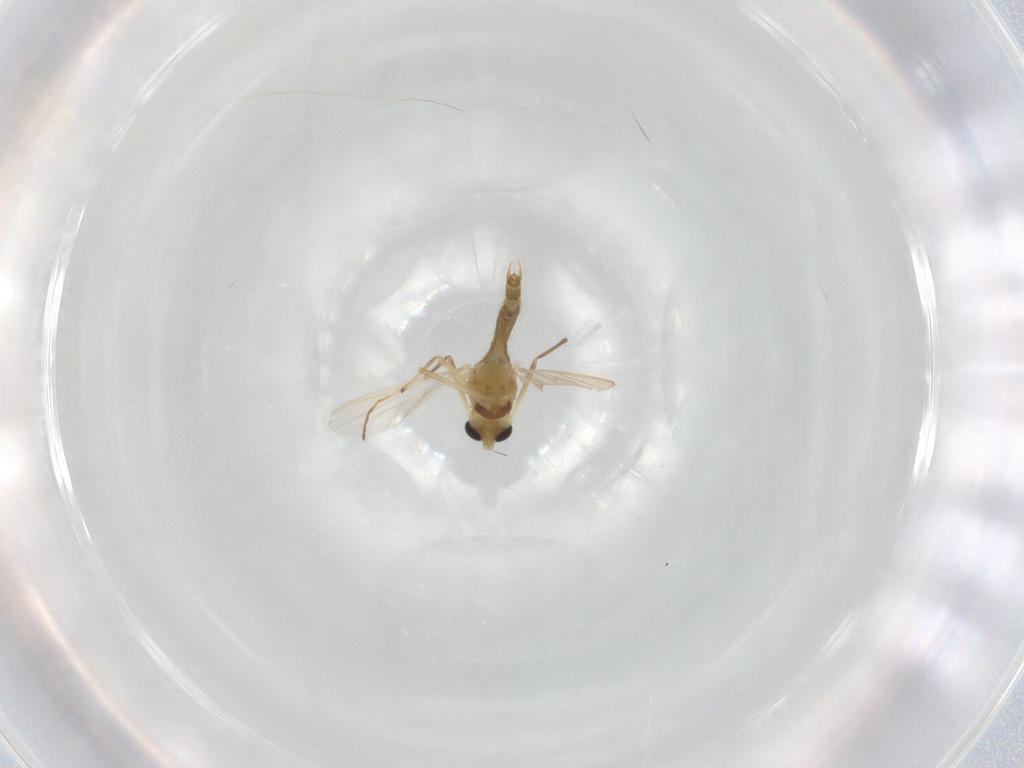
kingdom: Animalia
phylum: Arthropoda
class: Insecta
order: Diptera
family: Chironomidae
